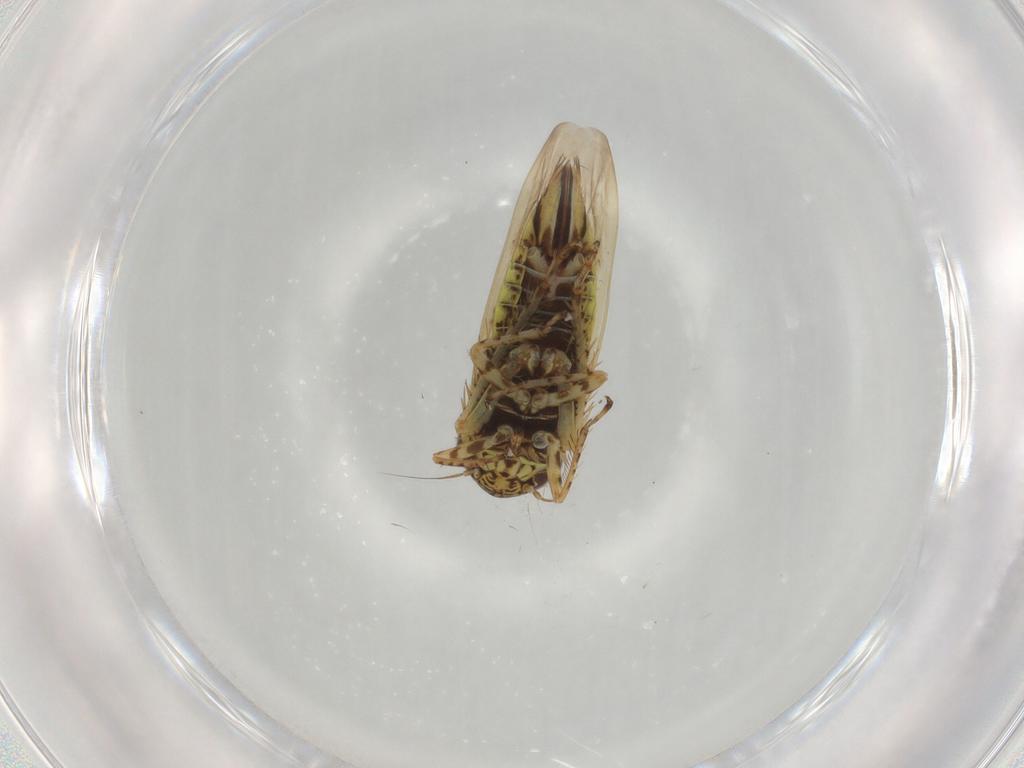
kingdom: Animalia
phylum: Arthropoda
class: Insecta
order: Hemiptera
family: Cicadellidae
